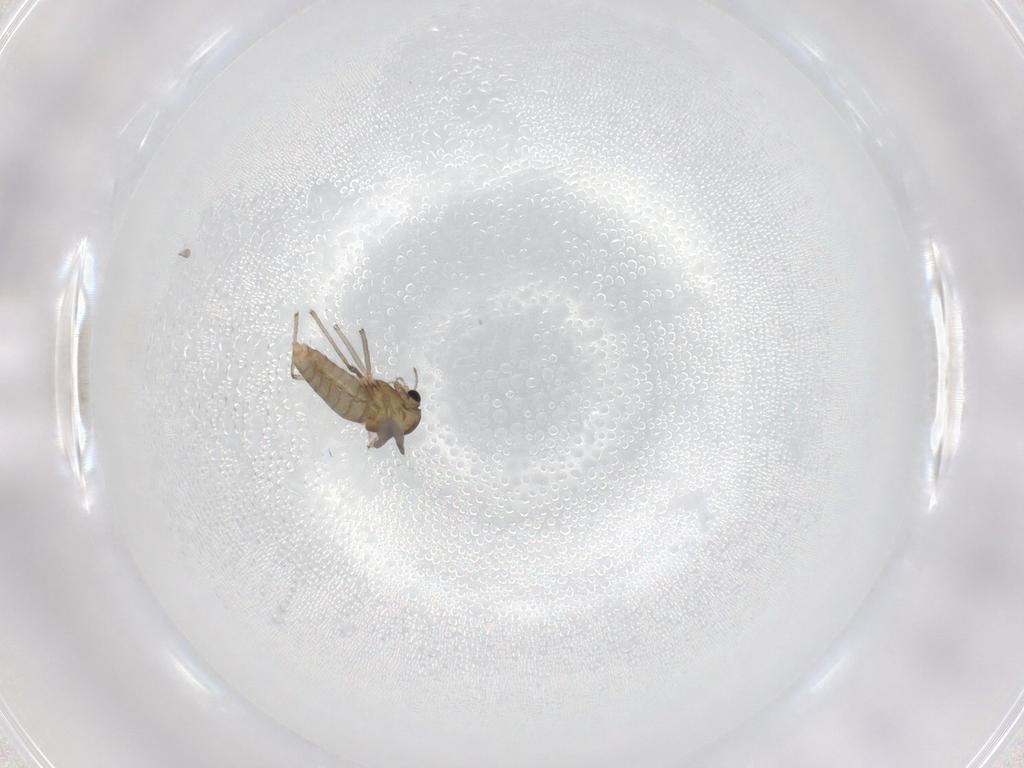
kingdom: Animalia
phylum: Arthropoda
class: Insecta
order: Diptera
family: Chironomidae
